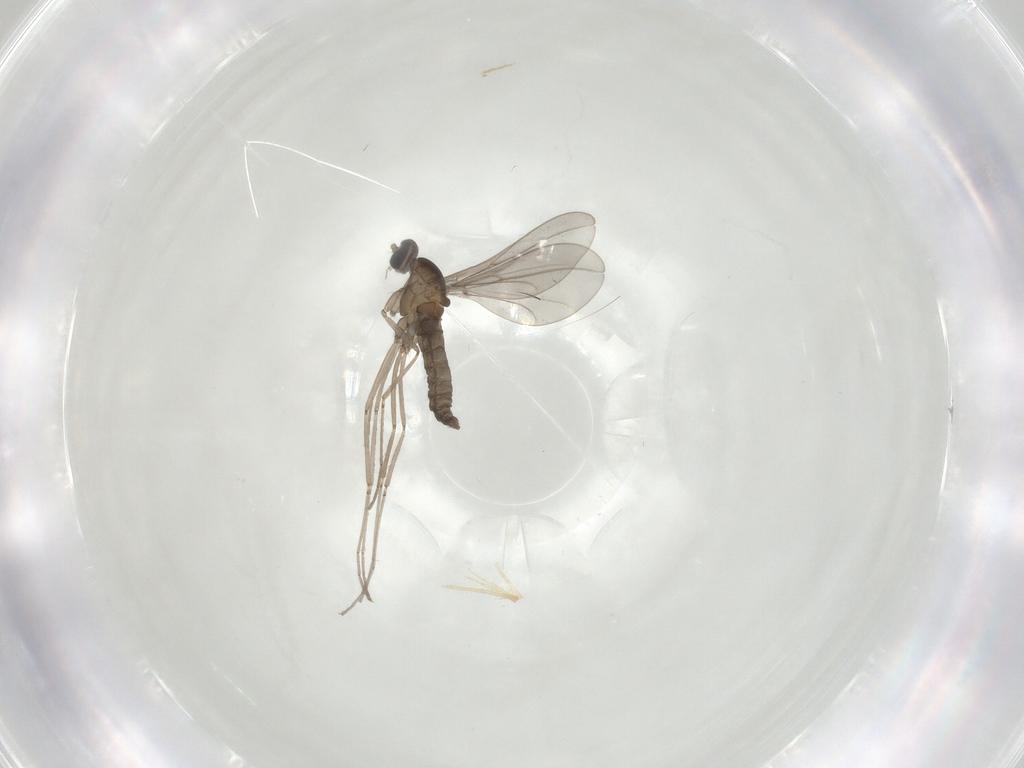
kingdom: Animalia
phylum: Arthropoda
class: Insecta
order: Diptera
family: Cecidomyiidae
